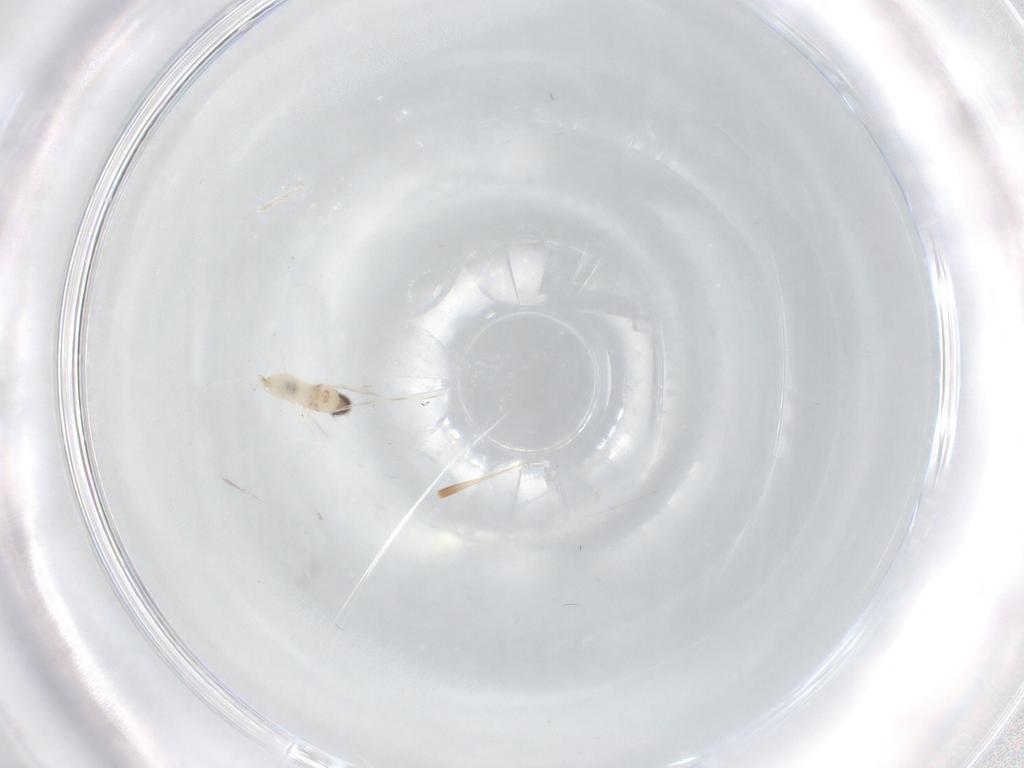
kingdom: Animalia
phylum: Arthropoda
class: Insecta
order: Diptera
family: Cecidomyiidae
